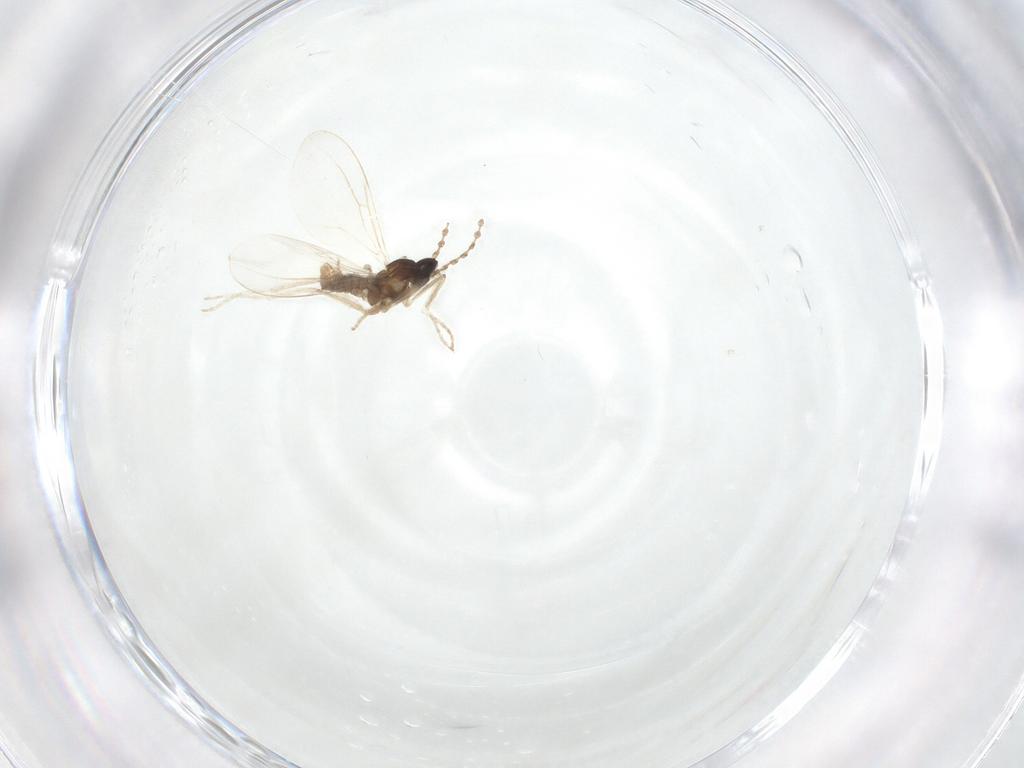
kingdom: Animalia
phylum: Arthropoda
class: Insecta
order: Diptera
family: Cecidomyiidae
